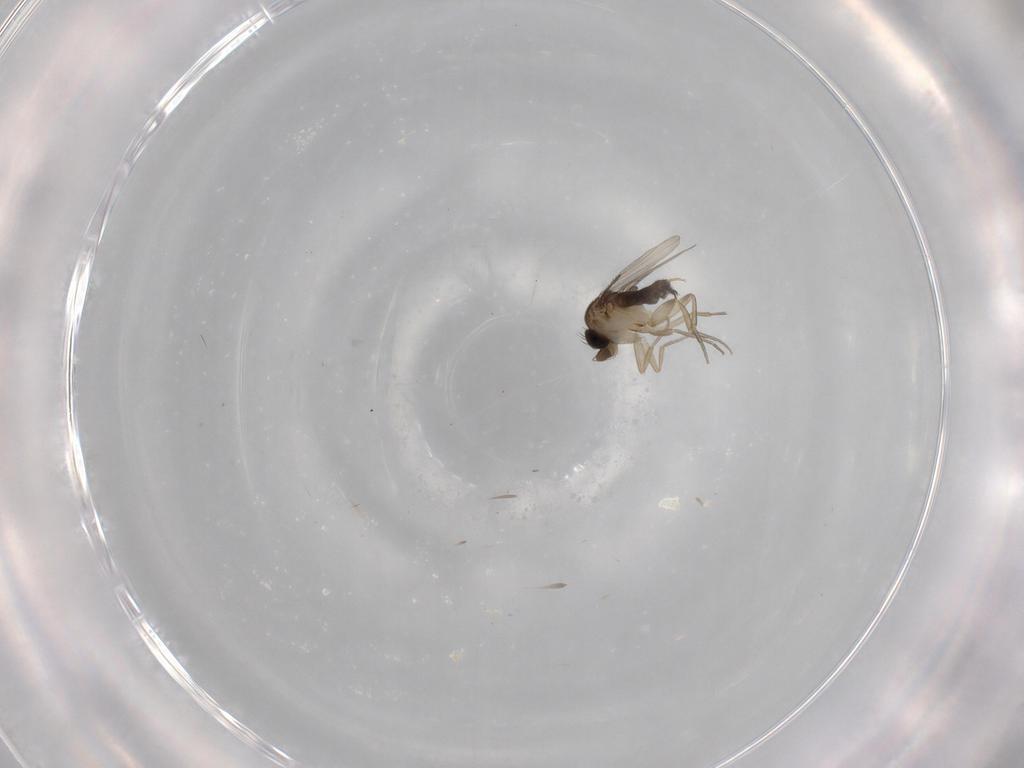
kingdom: Animalia
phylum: Arthropoda
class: Insecta
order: Diptera
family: Phoridae
